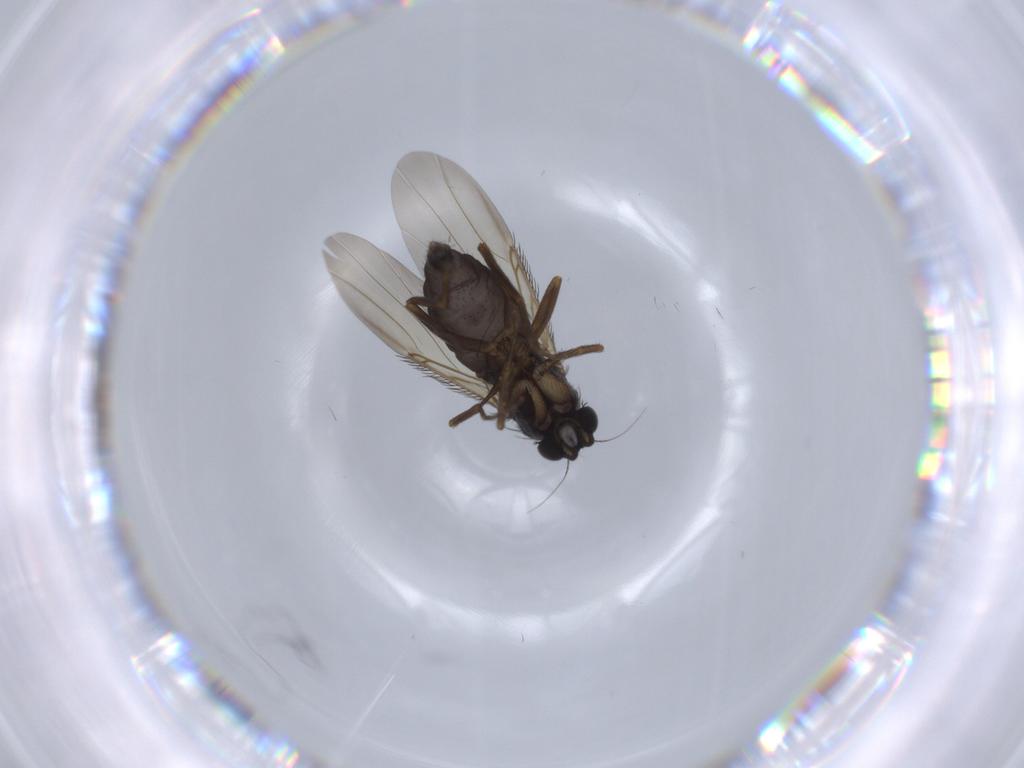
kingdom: Animalia
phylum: Arthropoda
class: Insecta
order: Diptera
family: Phoridae
